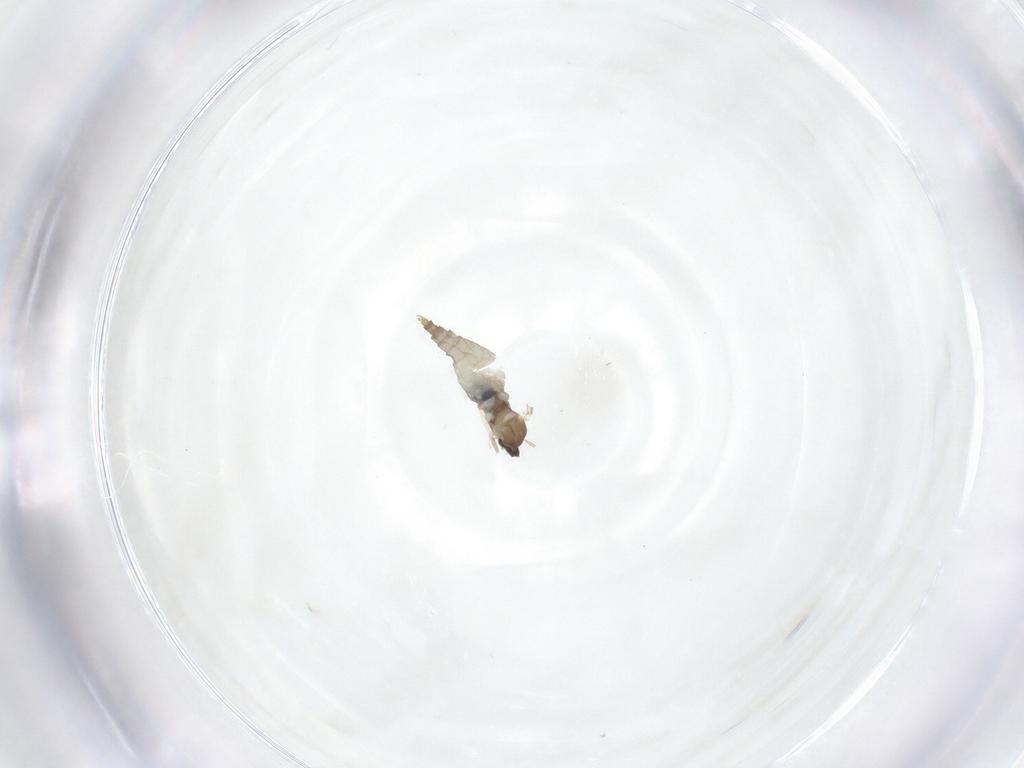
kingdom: Animalia
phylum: Arthropoda
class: Insecta
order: Diptera
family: Cecidomyiidae
